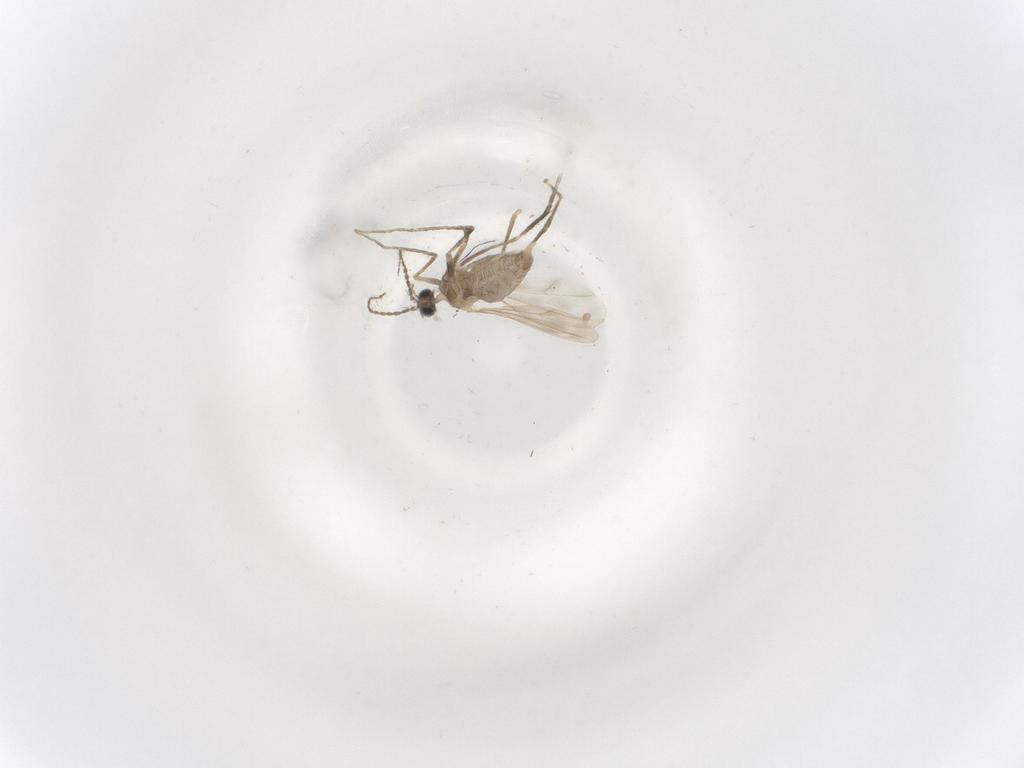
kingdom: Animalia
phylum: Arthropoda
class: Insecta
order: Diptera
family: Cecidomyiidae
